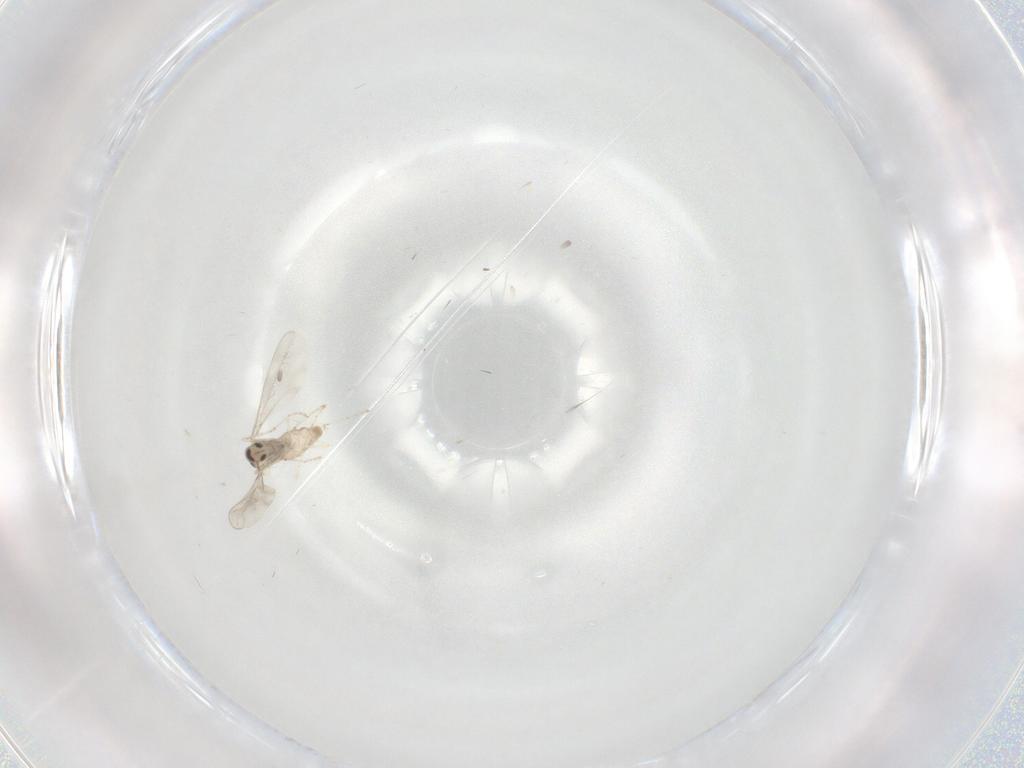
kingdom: Animalia
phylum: Arthropoda
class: Insecta
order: Diptera
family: Cecidomyiidae
